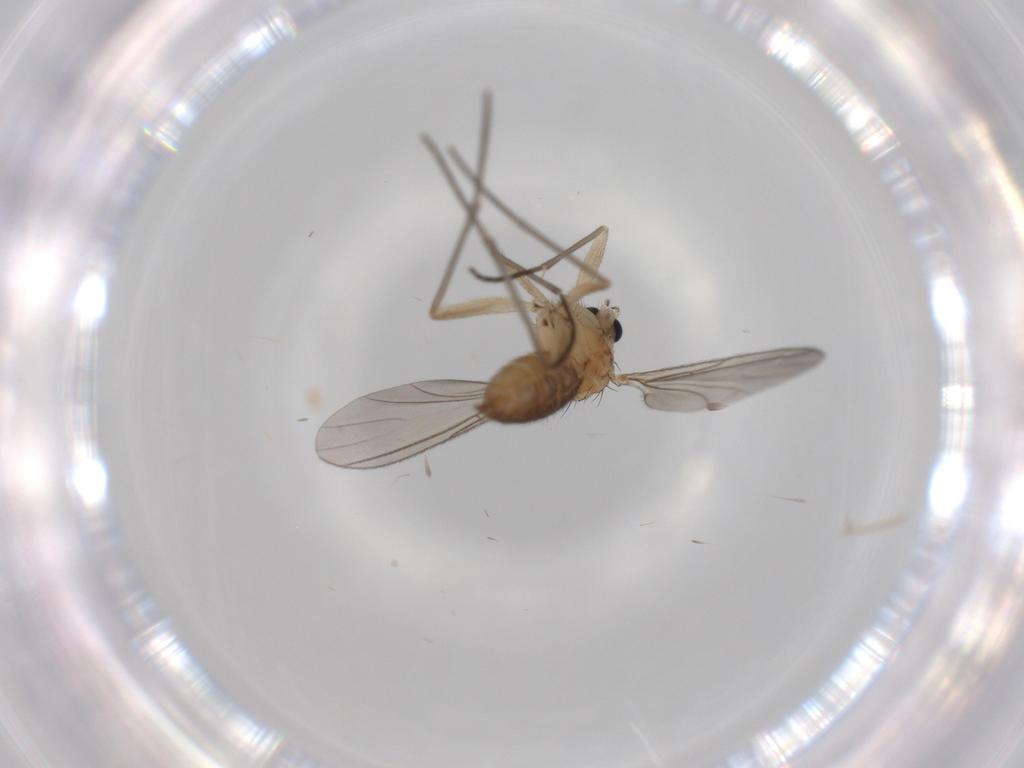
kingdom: Animalia
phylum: Arthropoda
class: Insecta
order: Diptera
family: Sciaridae
